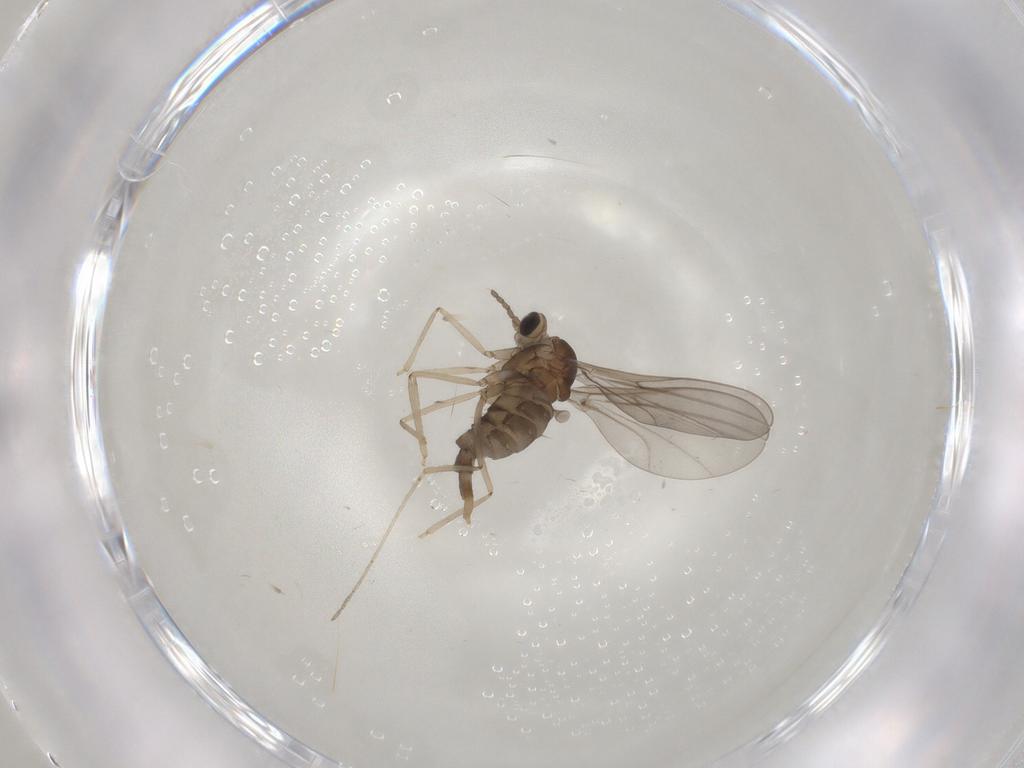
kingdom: Animalia
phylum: Arthropoda
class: Insecta
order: Diptera
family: Cecidomyiidae
